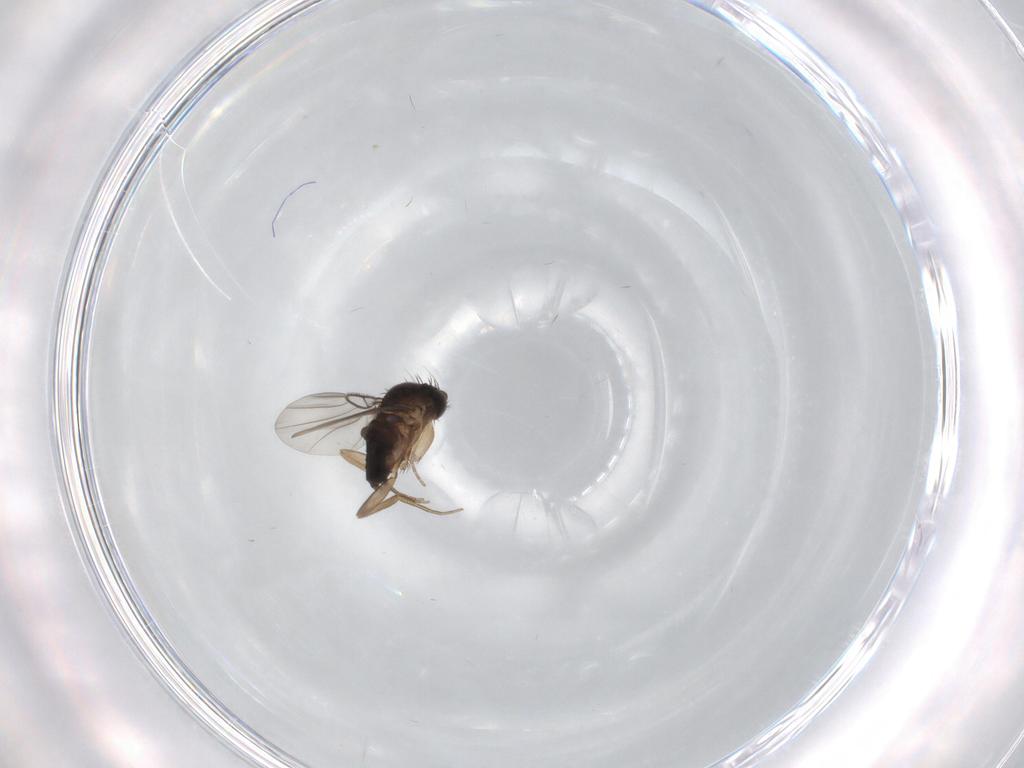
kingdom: Animalia
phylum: Arthropoda
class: Insecta
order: Diptera
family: Phoridae
